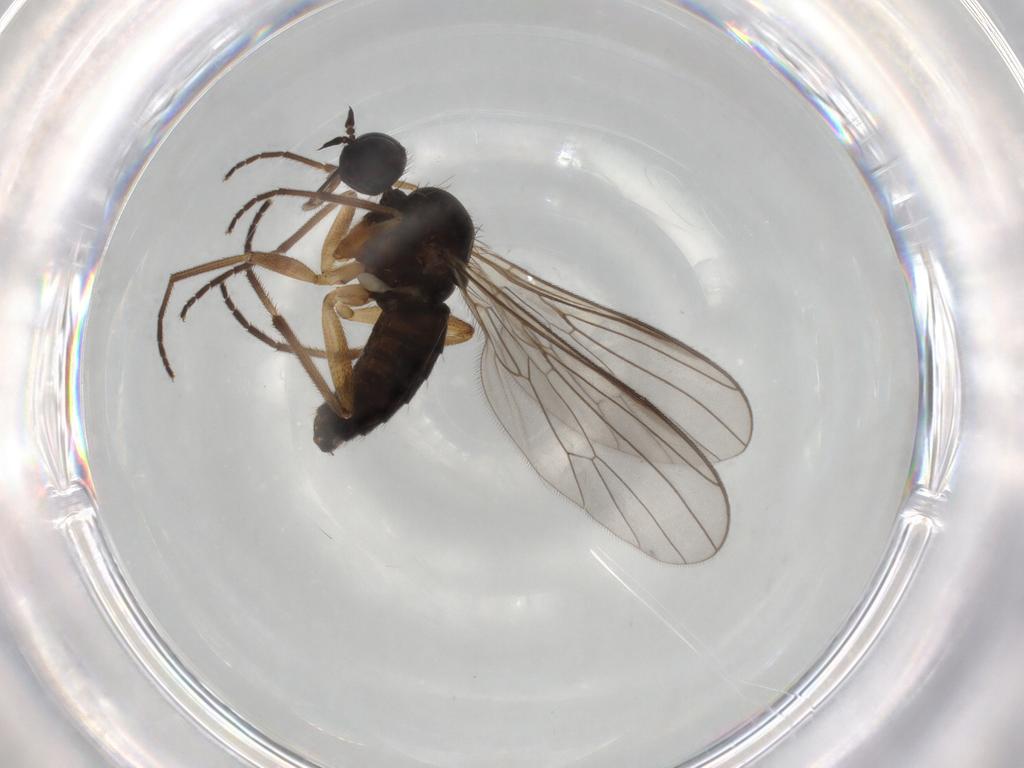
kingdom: Animalia
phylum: Arthropoda
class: Insecta
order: Diptera
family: Empididae
